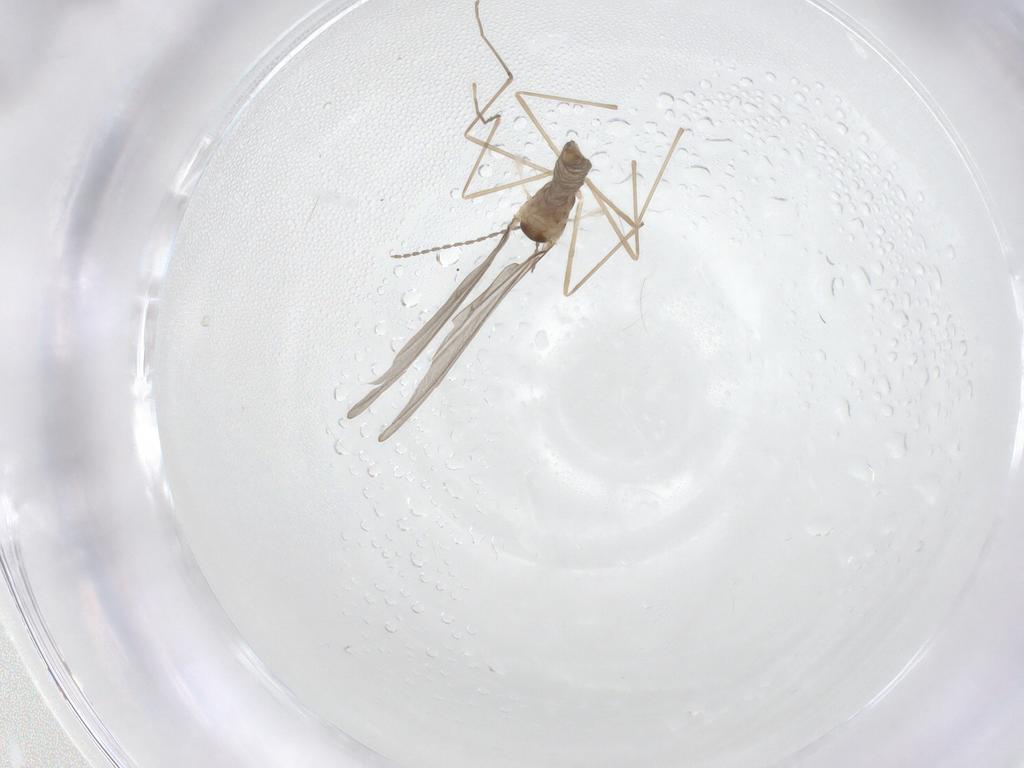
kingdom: Animalia
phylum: Arthropoda
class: Insecta
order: Diptera
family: Cecidomyiidae
